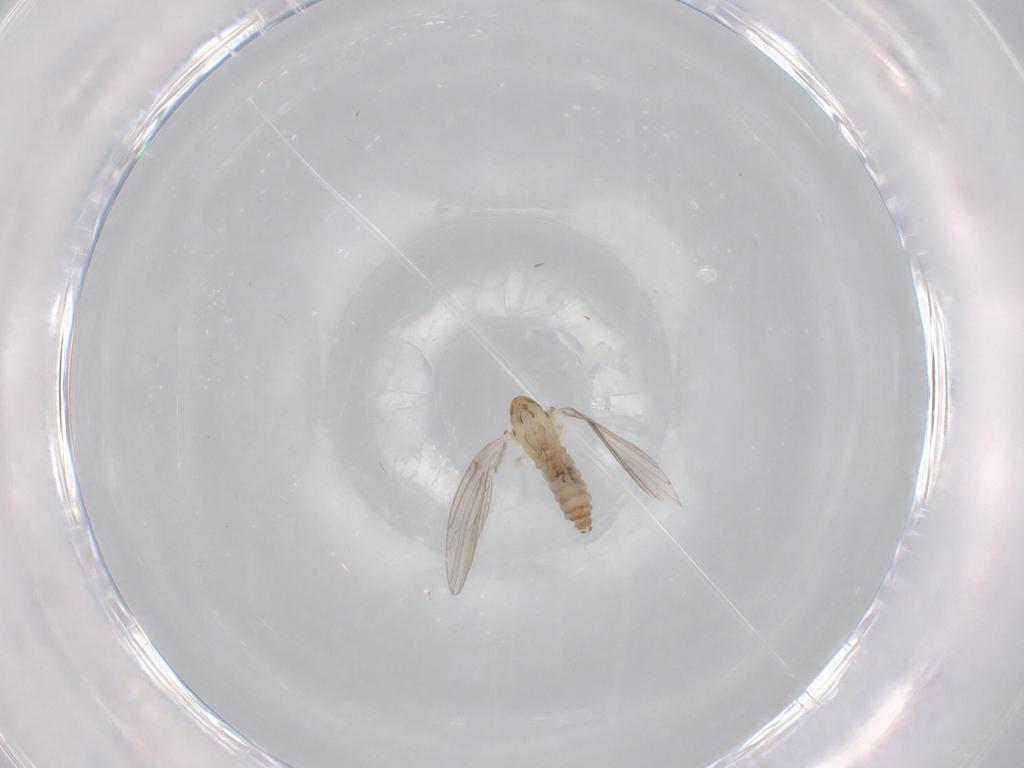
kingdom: Animalia
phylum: Arthropoda
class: Insecta
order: Diptera
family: Psychodidae
